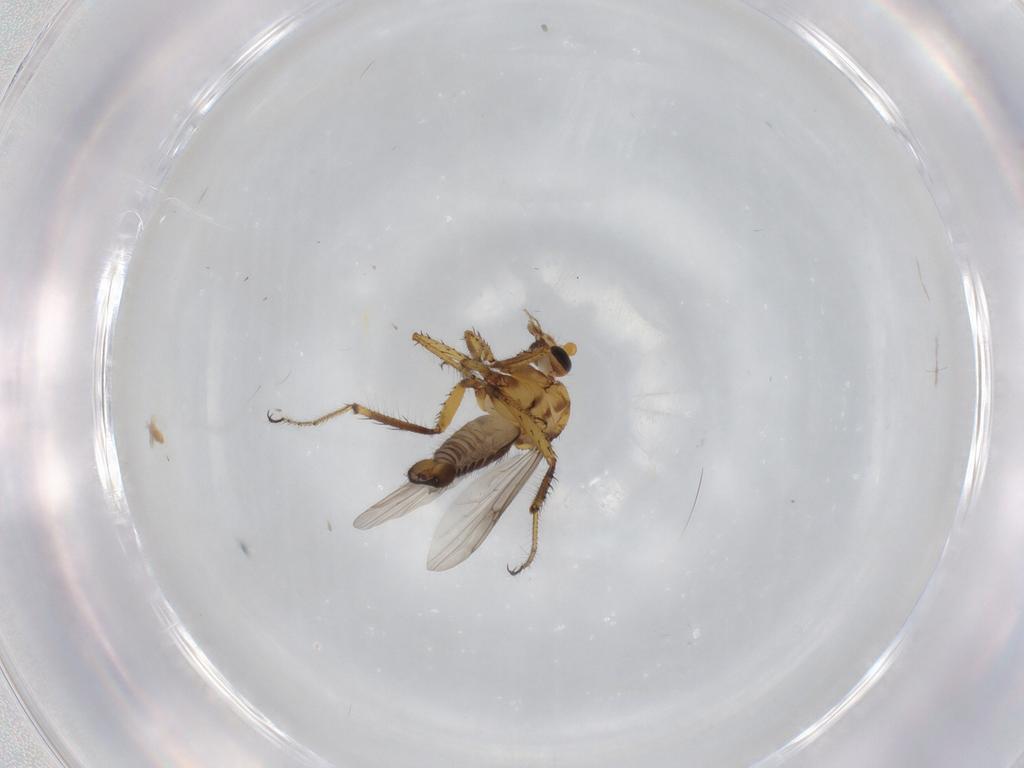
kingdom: Animalia
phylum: Arthropoda
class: Insecta
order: Diptera
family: Ceratopogonidae
